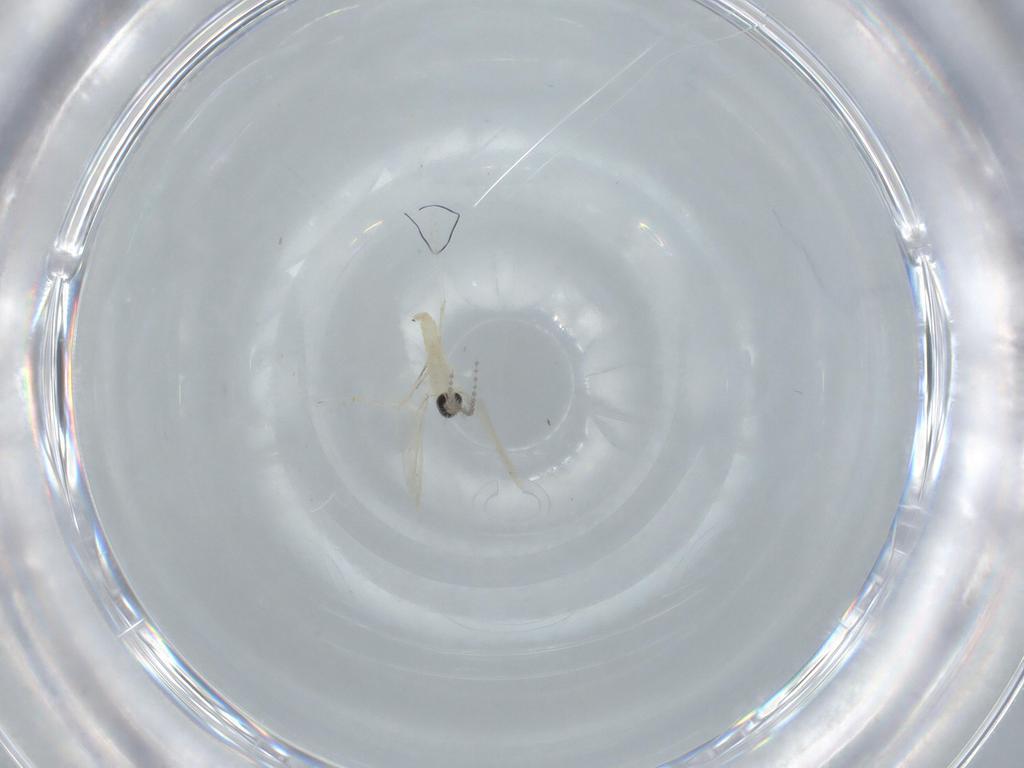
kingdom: Animalia
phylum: Arthropoda
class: Insecta
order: Diptera
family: Cecidomyiidae
